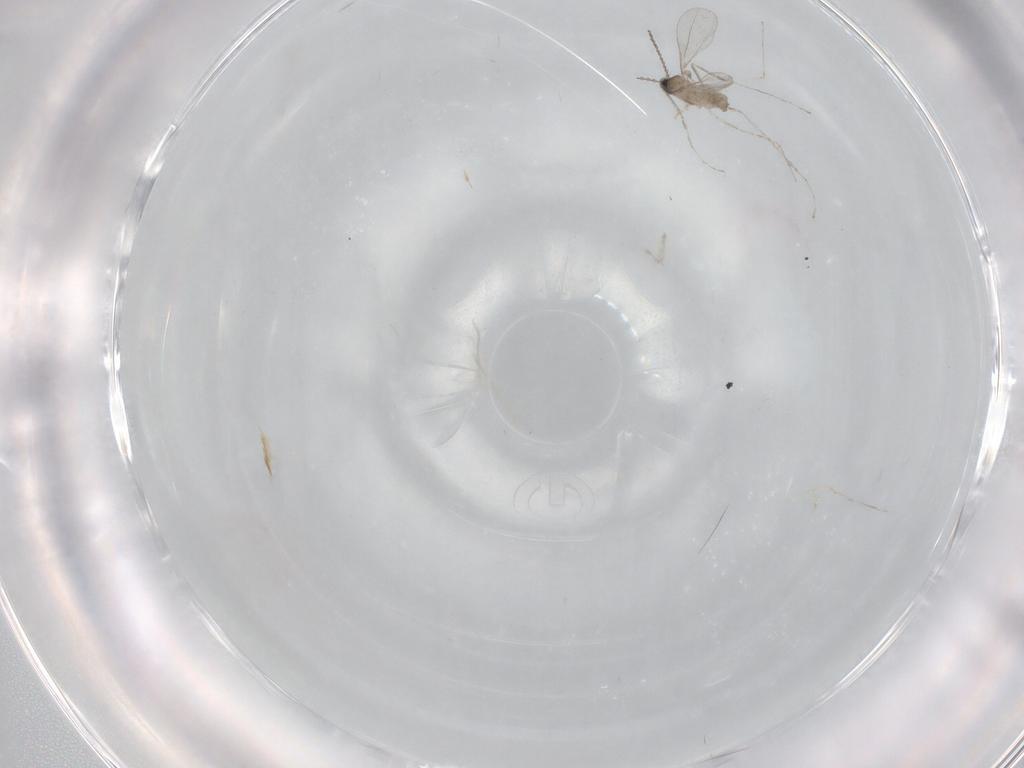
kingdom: Animalia
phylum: Arthropoda
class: Insecta
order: Diptera
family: Cecidomyiidae
